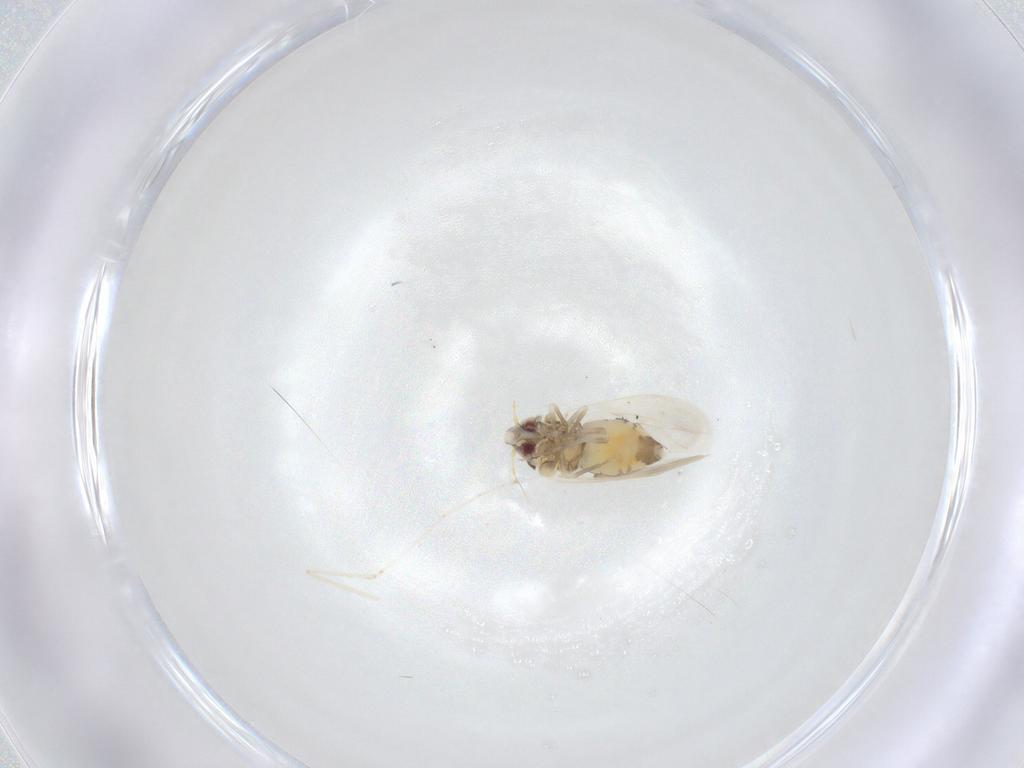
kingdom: Animalia
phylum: Arthropoda
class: Insecta
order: Hemiptera
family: Aleyrodidae
